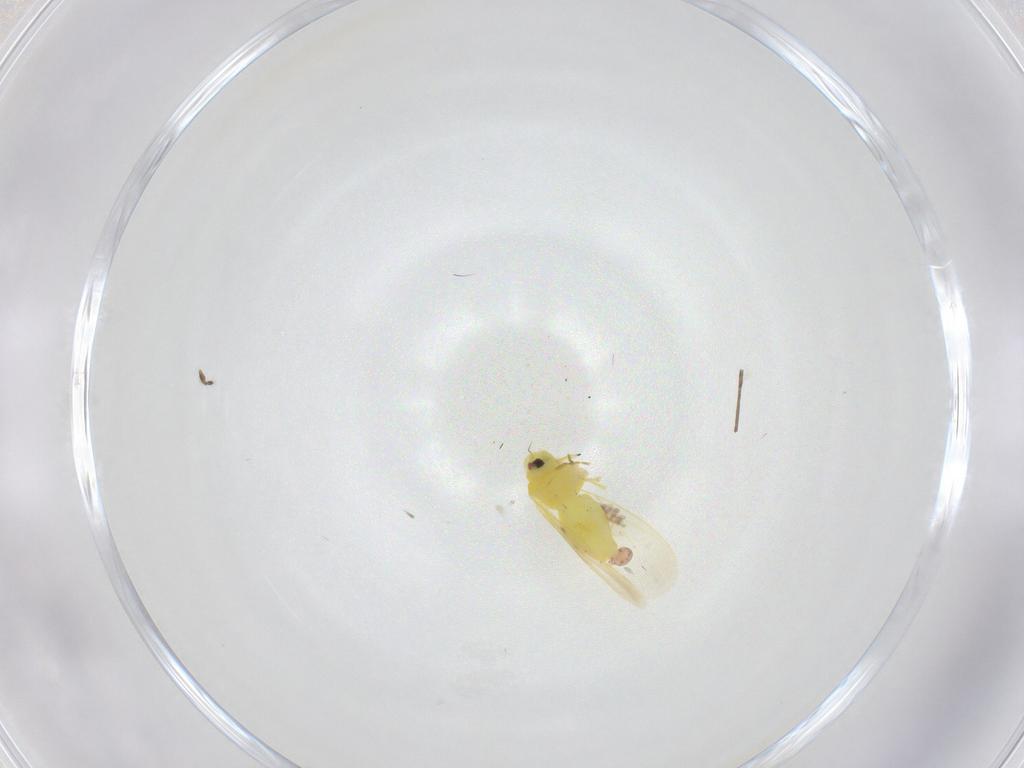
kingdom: Animalia
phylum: Arthropoda
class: Insecta
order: Hemiptera
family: Aleyrodidae
